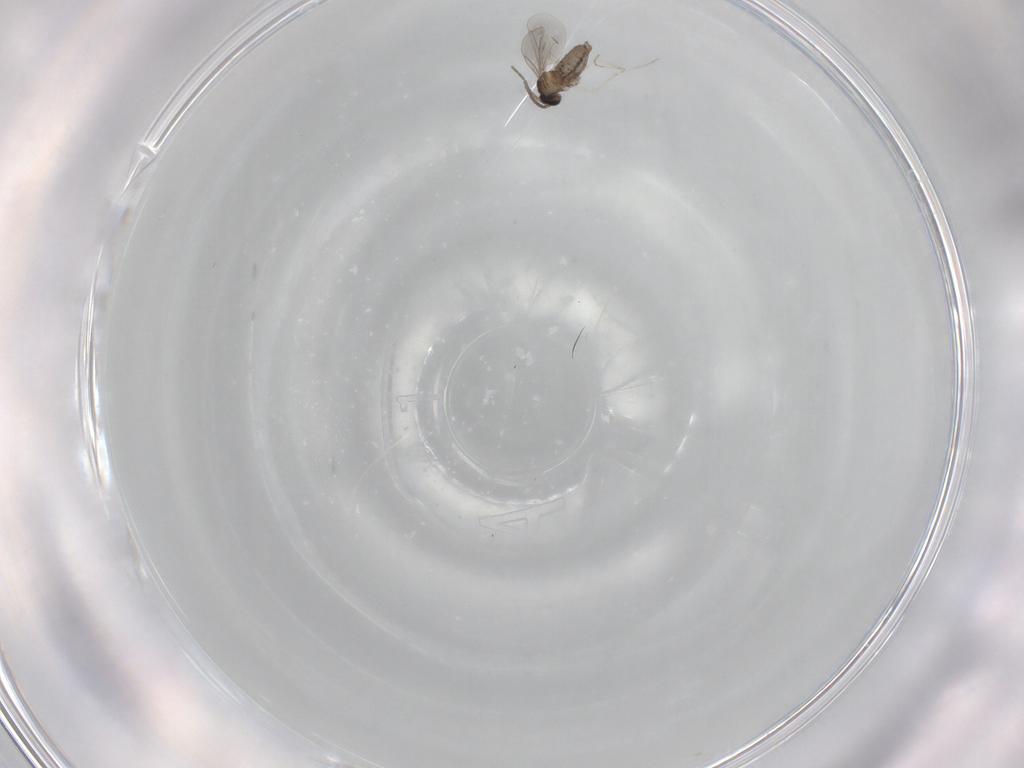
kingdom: Animalia
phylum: Arthropoda
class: Insecta
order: Diptera
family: Cecidomyiidae
